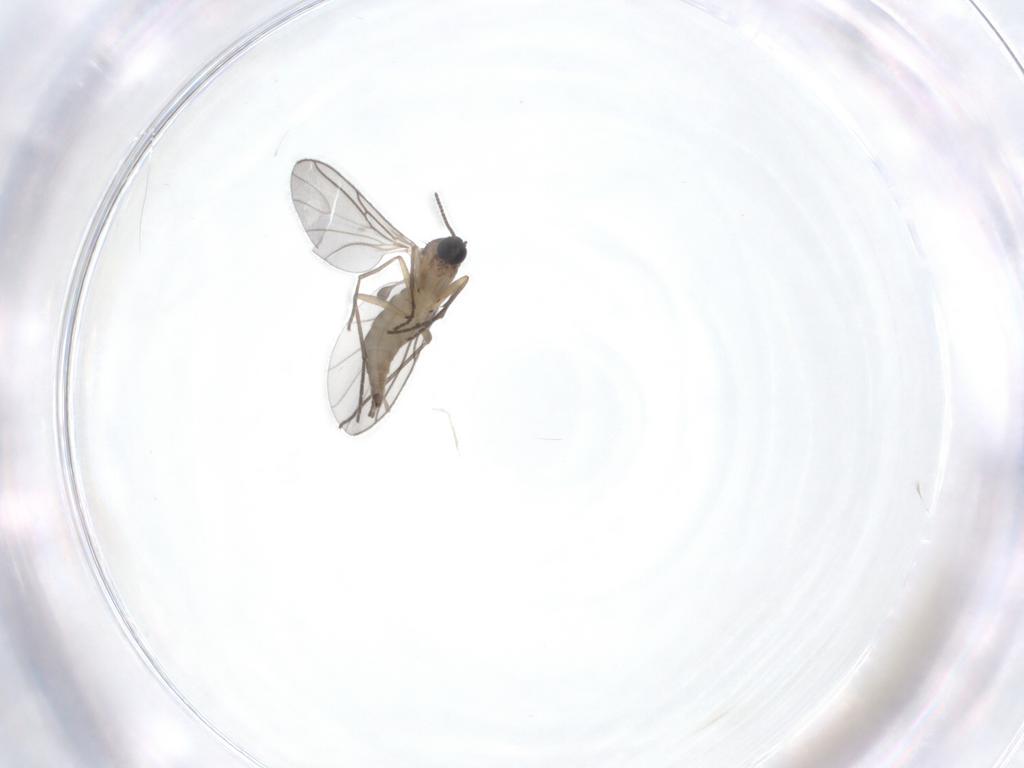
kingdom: Animalia
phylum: Arthropoda
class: Insecta
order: Diptera
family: Sciaridae
